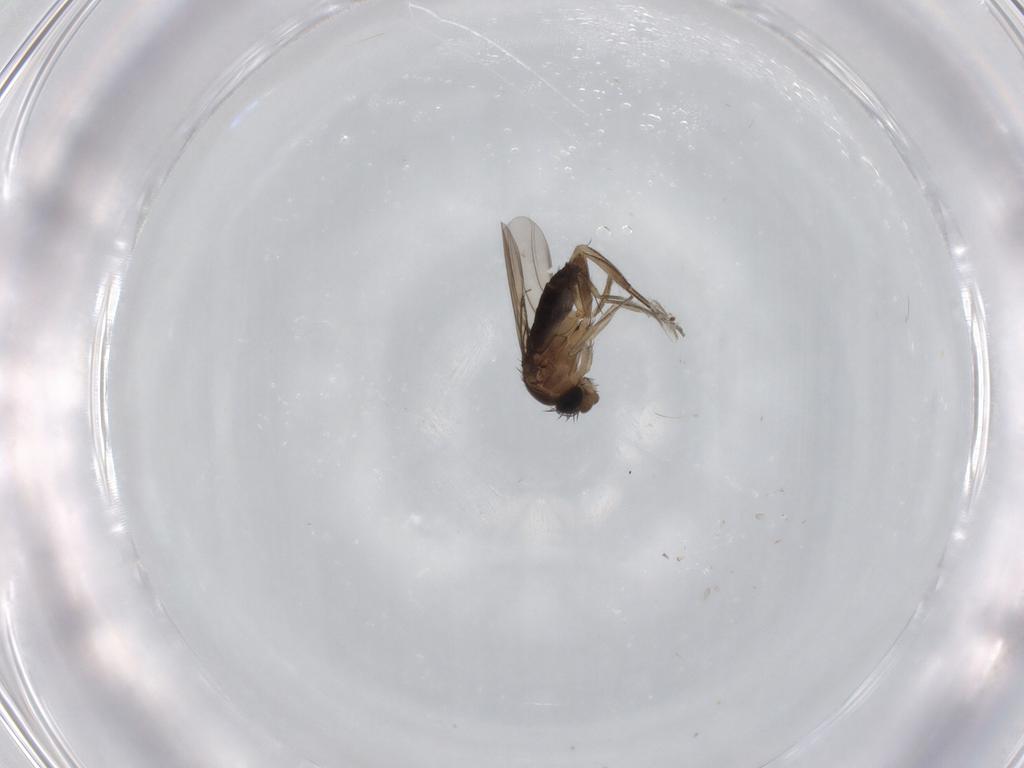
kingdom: Animalia
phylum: Arthropoda
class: Insecta
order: Diptera
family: Phoridae
